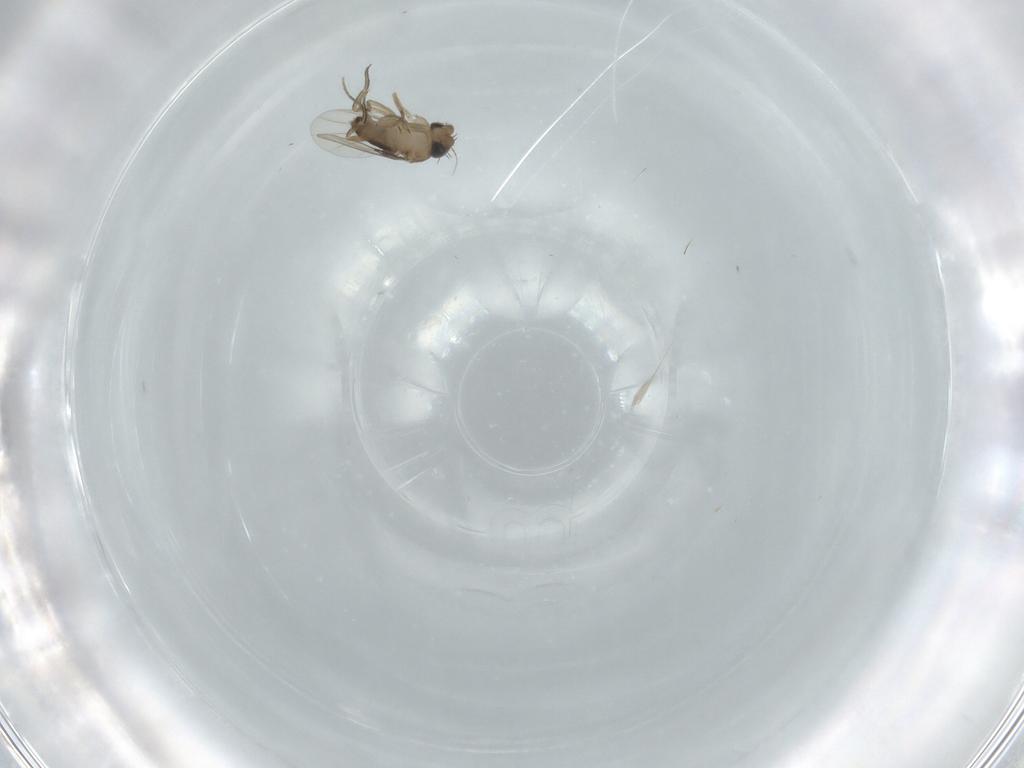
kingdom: Animalia
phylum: Arthropoda
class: Insecta
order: Diptera
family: Phoridae
